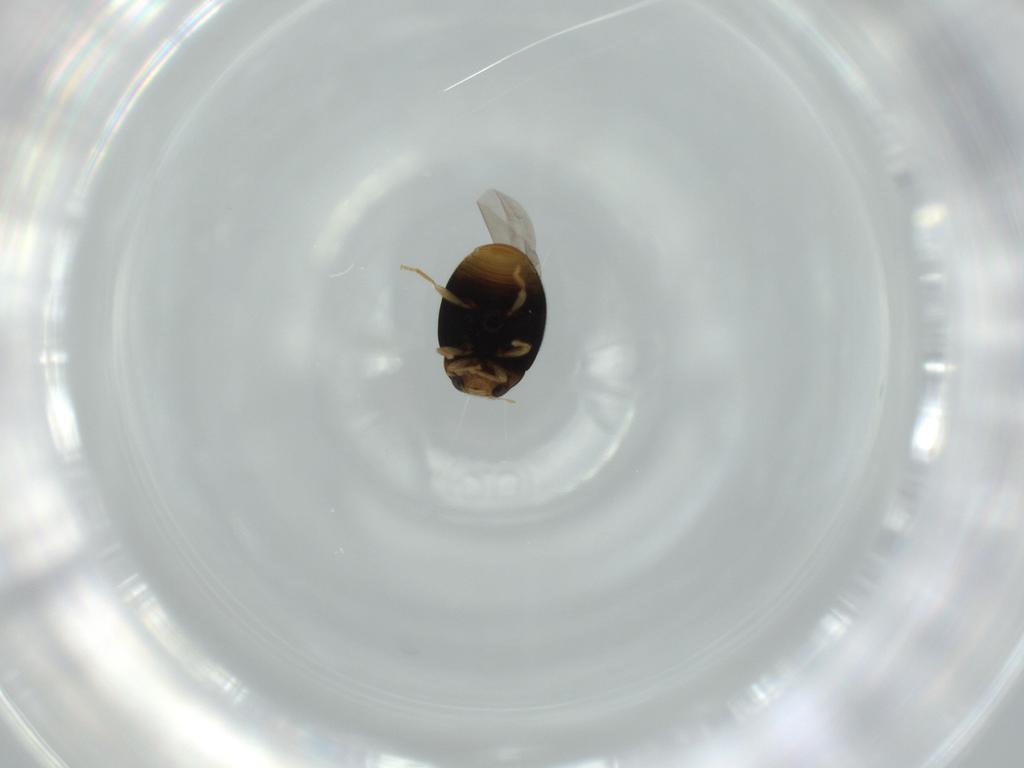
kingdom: Animalia
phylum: Arthropoda
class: Insecta
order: Coleoptera
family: Coccinellidae
